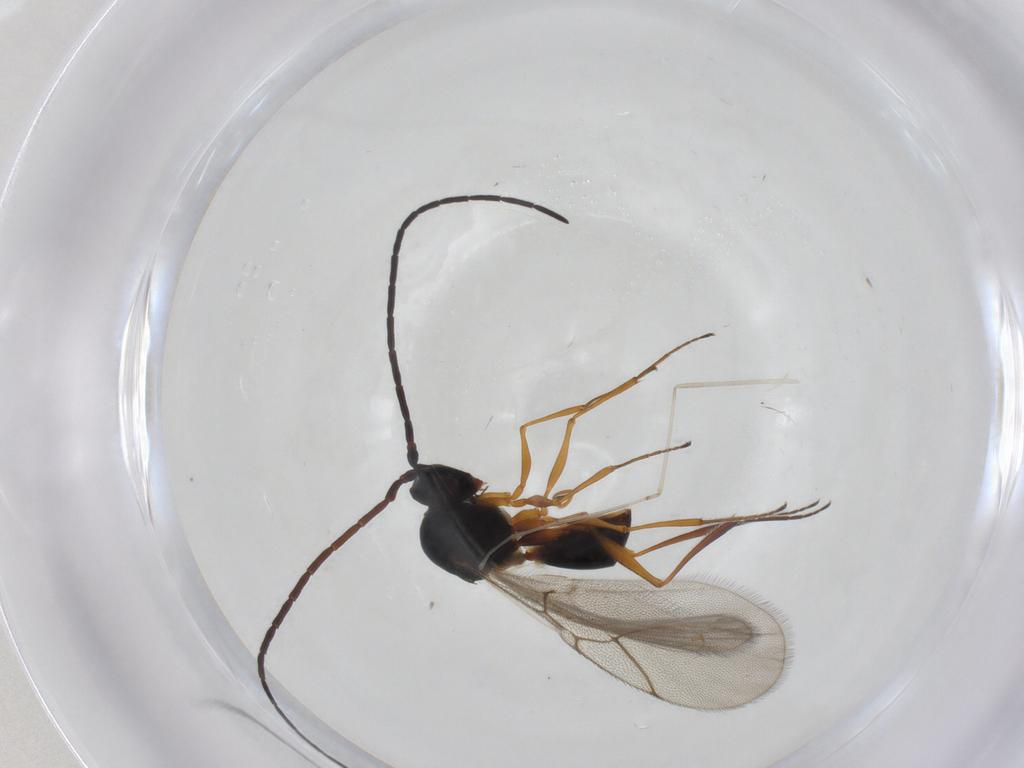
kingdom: Animalia
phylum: Arthropoda
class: Insecta
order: Hymenoptera
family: Figitidae
